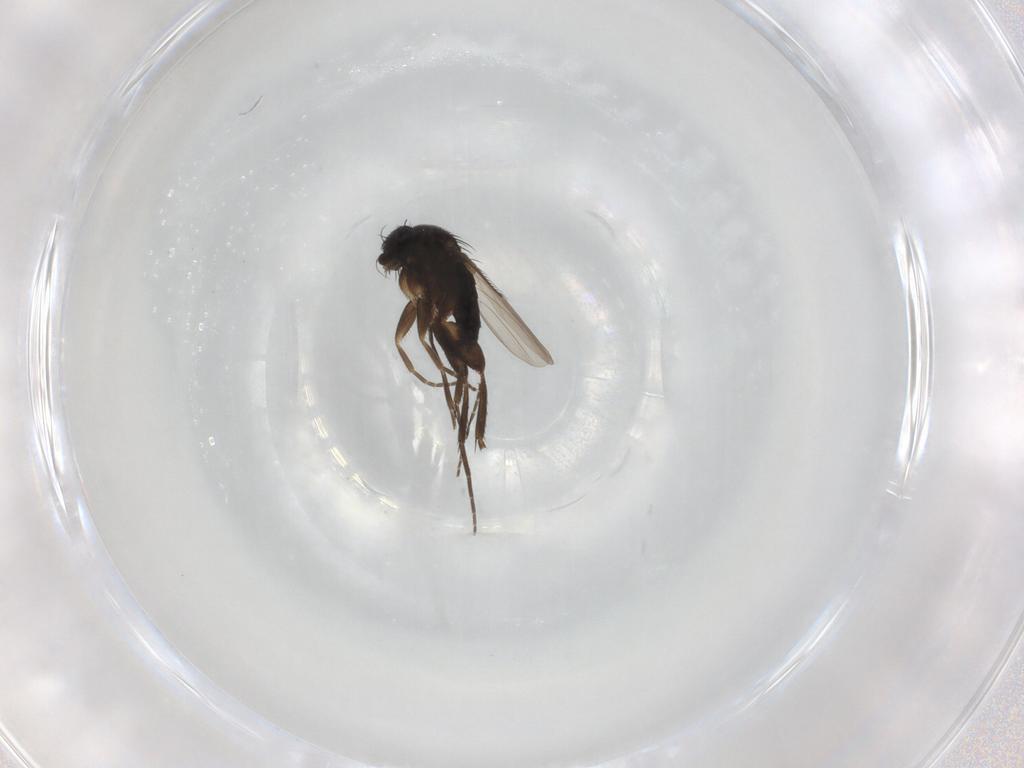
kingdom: Animalia
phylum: Arthropoda
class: Insecta
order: Diptera
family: Phoridae
